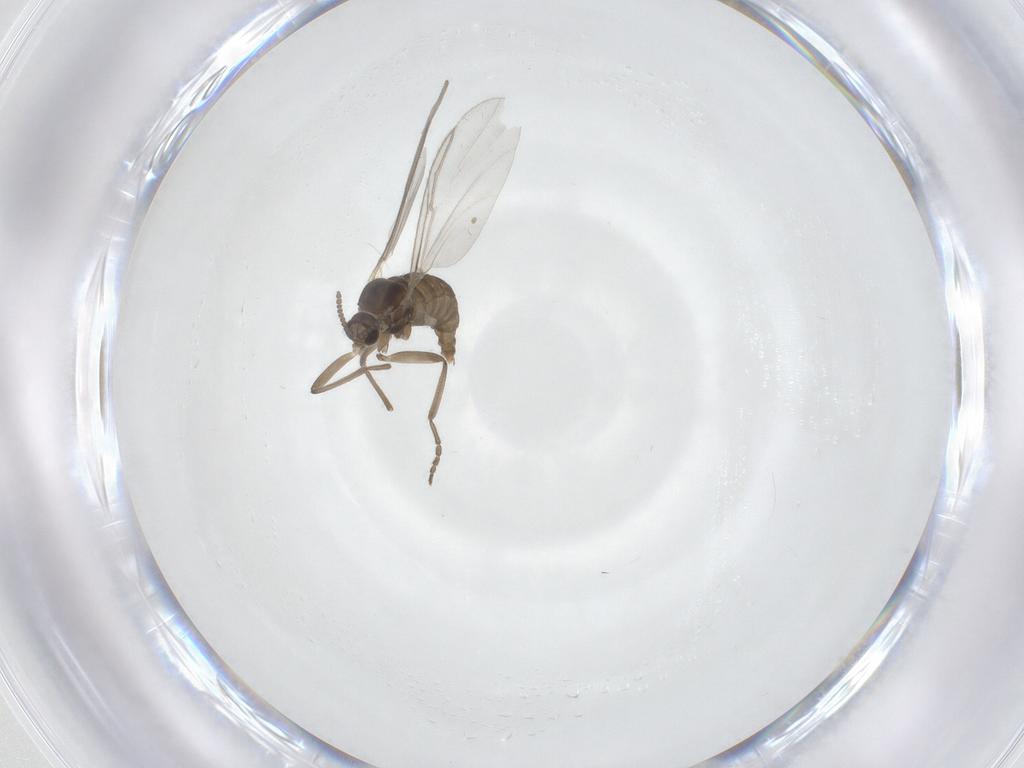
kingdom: Animalia
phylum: Arthropoda
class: Insecta
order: Diptera
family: Cecidomyiidae
